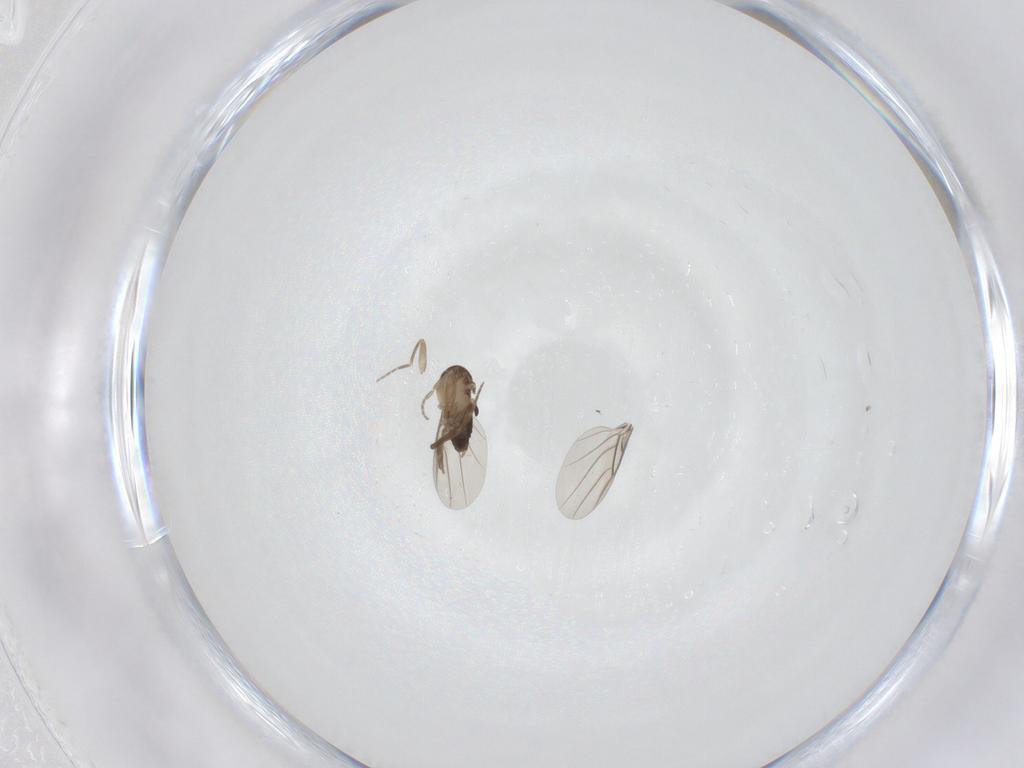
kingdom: Animalia
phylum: Arthropoda
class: Insecta
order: Diptera
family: Phoridae
